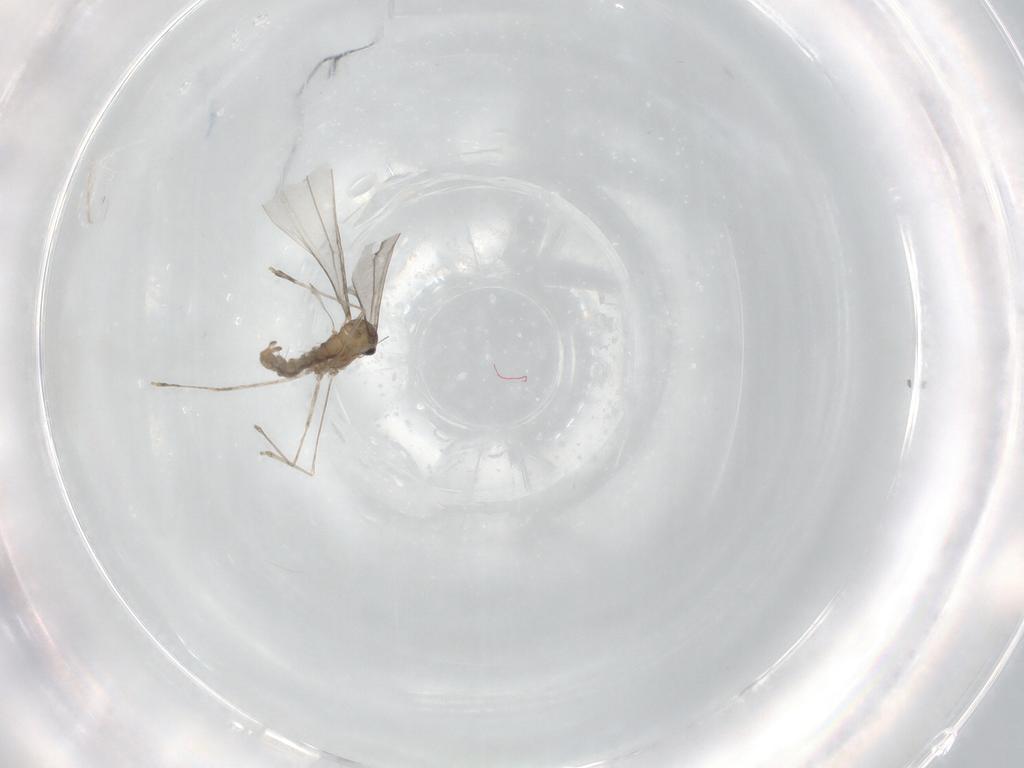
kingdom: Animalia
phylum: Arthropoda
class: Insecta
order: Diptera
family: Cecidomyiidae
